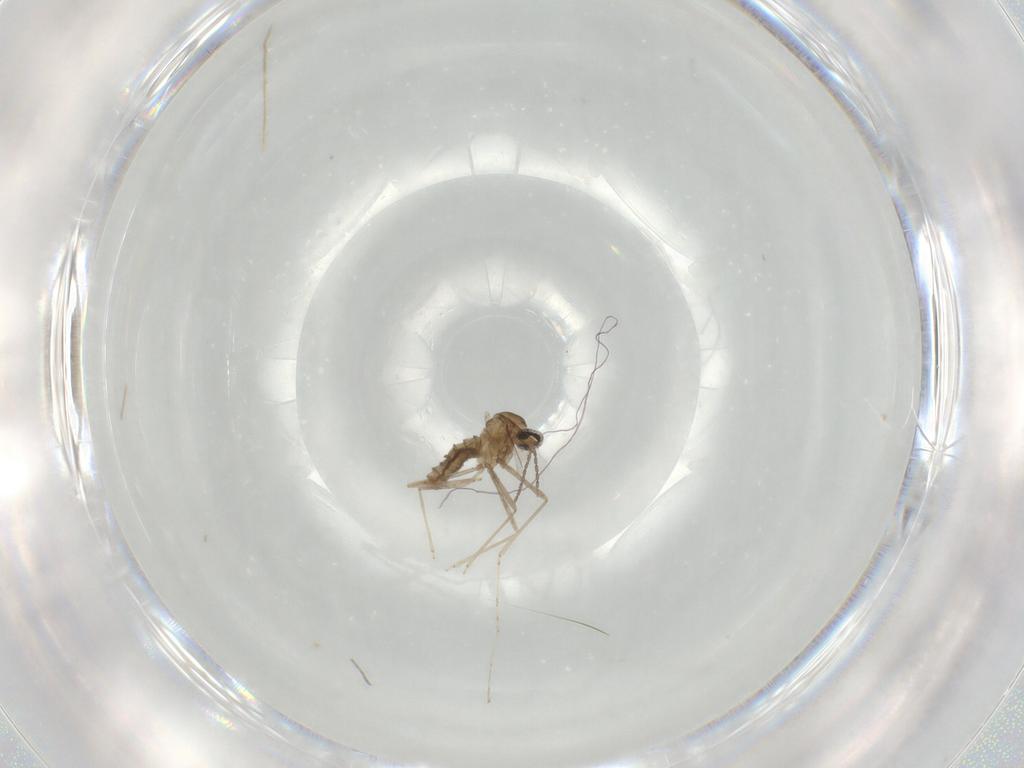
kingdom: Animalia
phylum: Arthropoda
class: Insecta
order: Diptera
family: Cecidomyiidae
